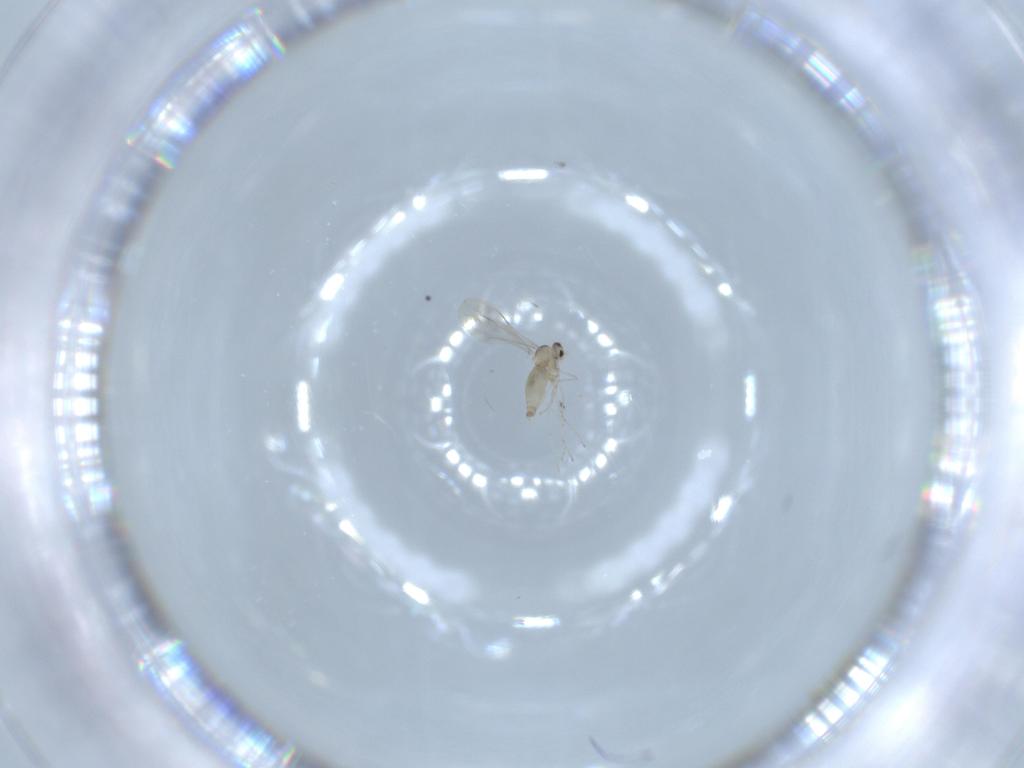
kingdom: Animalia
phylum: Arthropoda
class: Insecta
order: Diptera
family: Cecidomyiidae
